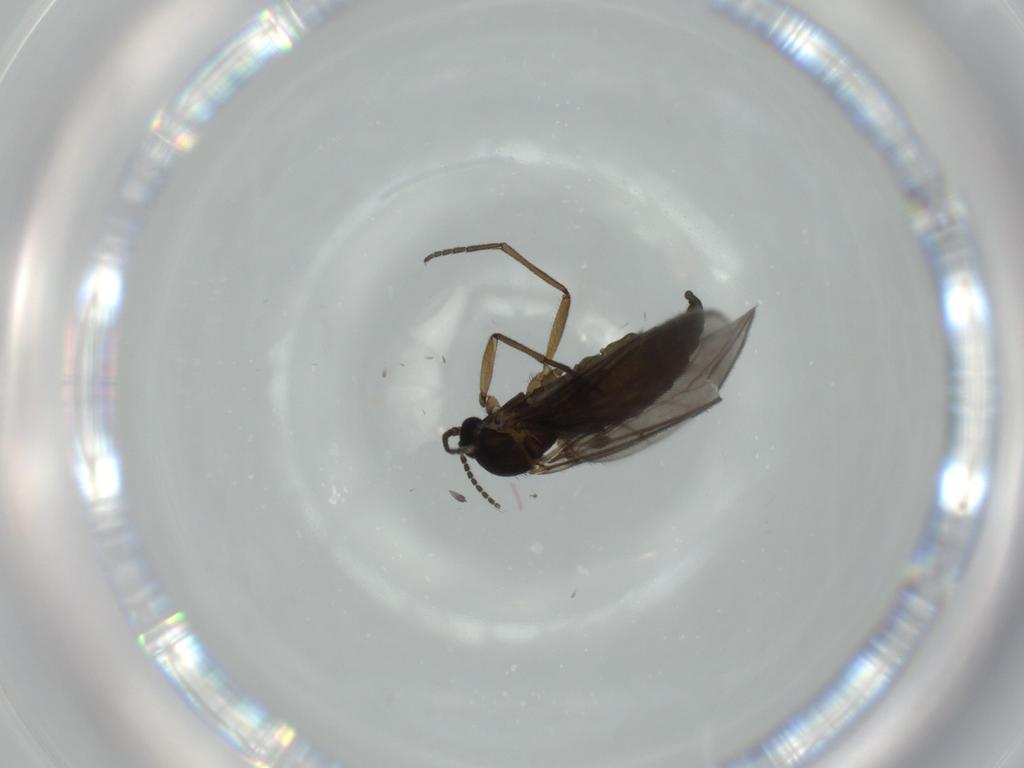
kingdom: Animalia
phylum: Arthropoda
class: Insecta
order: Diptera
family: Sciaridae
